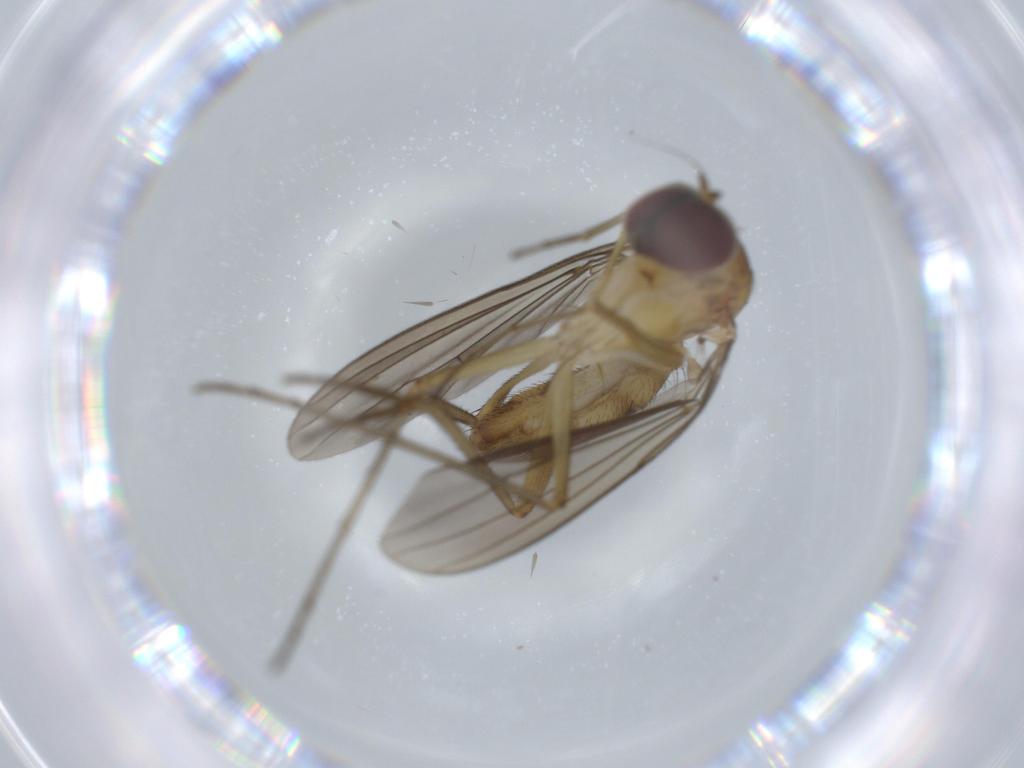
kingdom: Animalia
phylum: Arthropoda
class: Insecta
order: Diptera
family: Dolichopodidae
